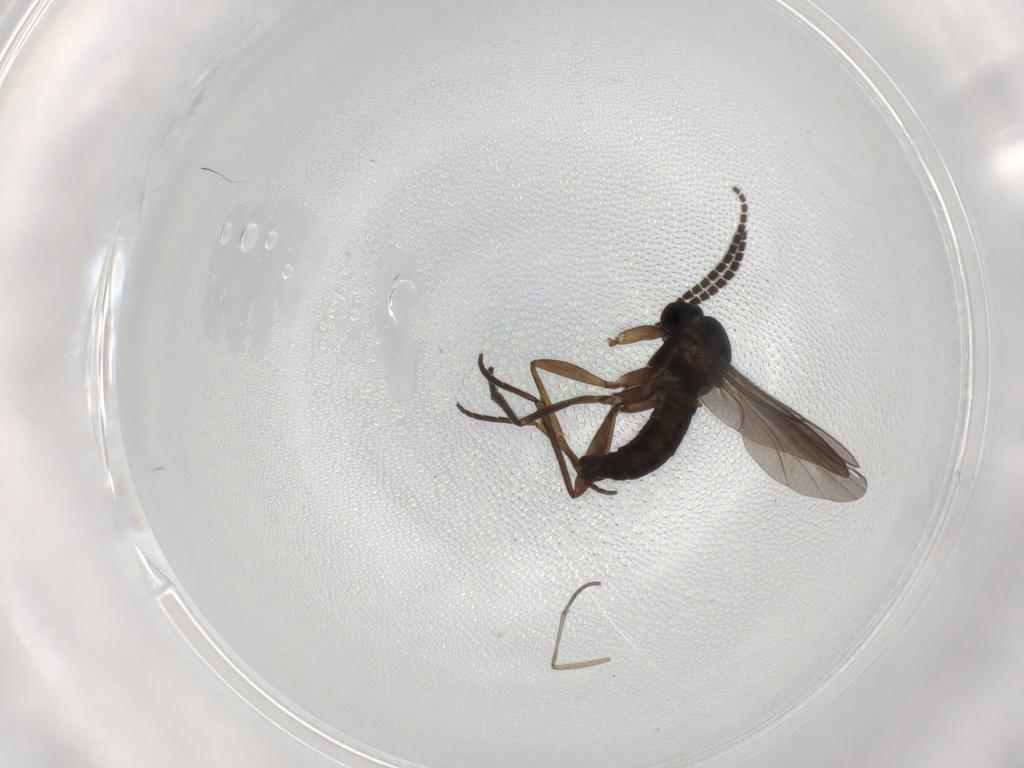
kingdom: Animalia
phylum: Arthropoda
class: Insecta
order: Diptera
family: Sciaridae
